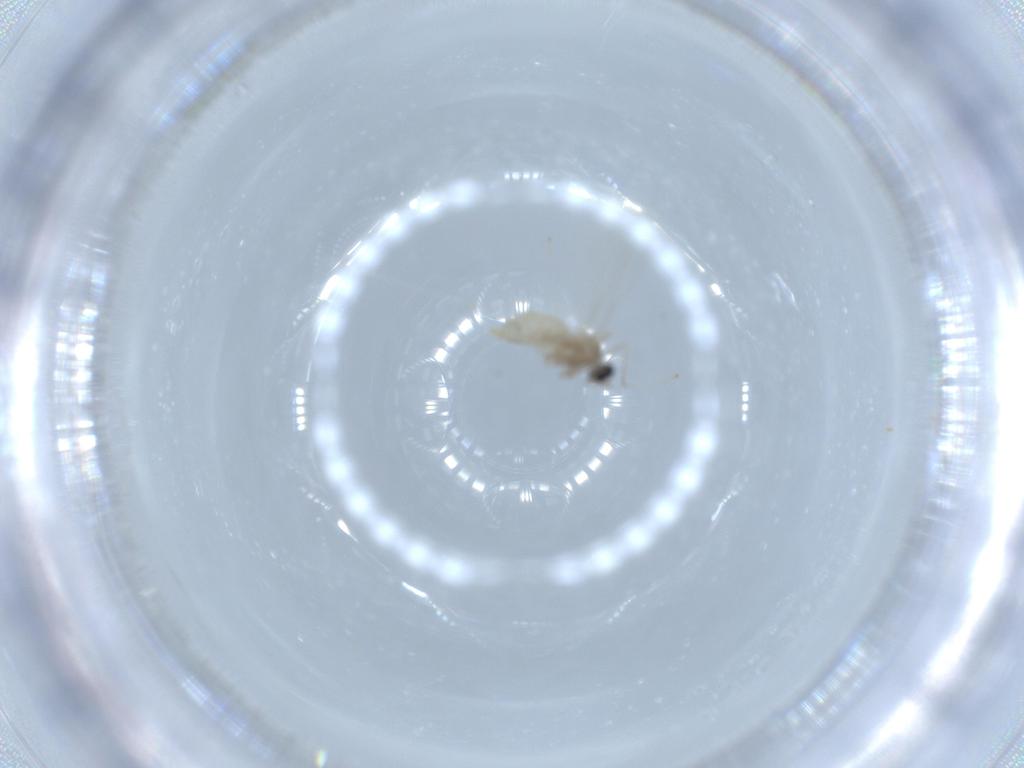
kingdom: Animalia
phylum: Arthropoda
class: Insecta
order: Diptera
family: Cecidomyiidae
